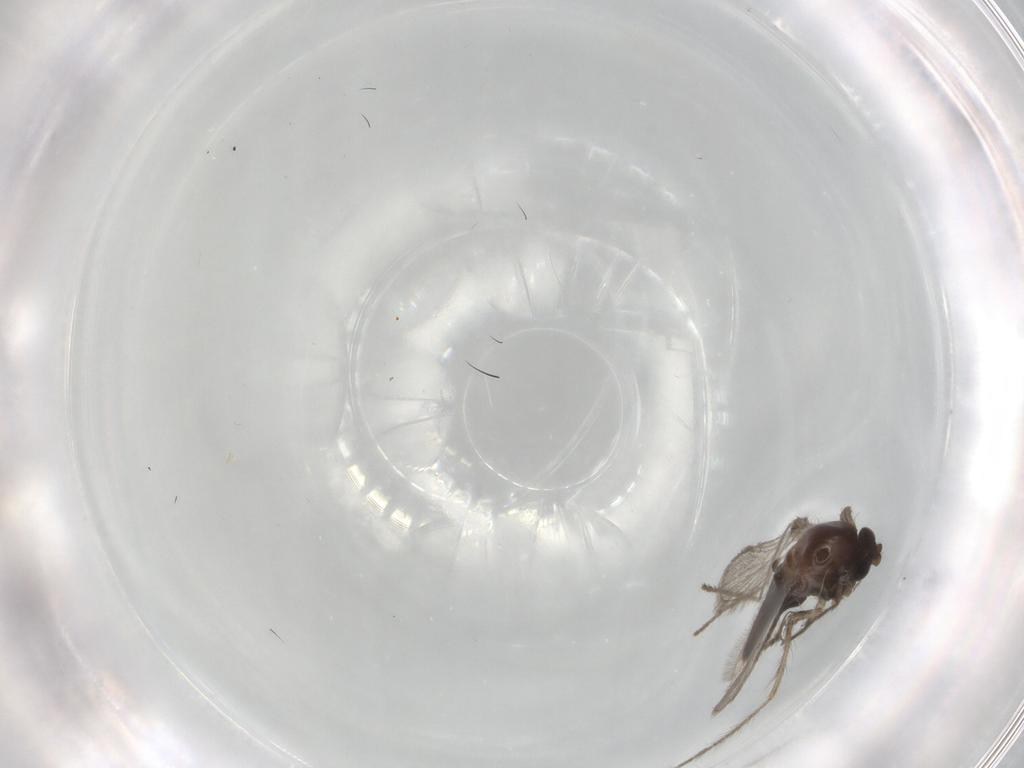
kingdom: Animalia
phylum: Arthropoda
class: Insecta
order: Diptera
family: Corethrellidae
